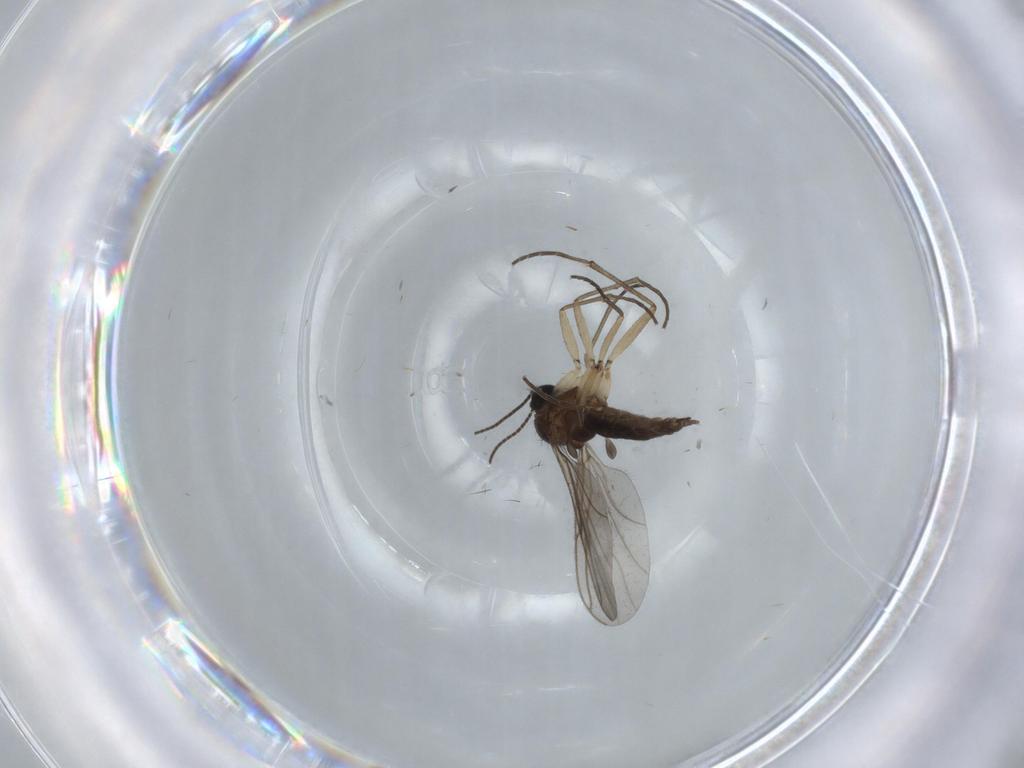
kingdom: Animalia
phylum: Arthropoda
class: Insecta
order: Diptera
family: Sciaridae
